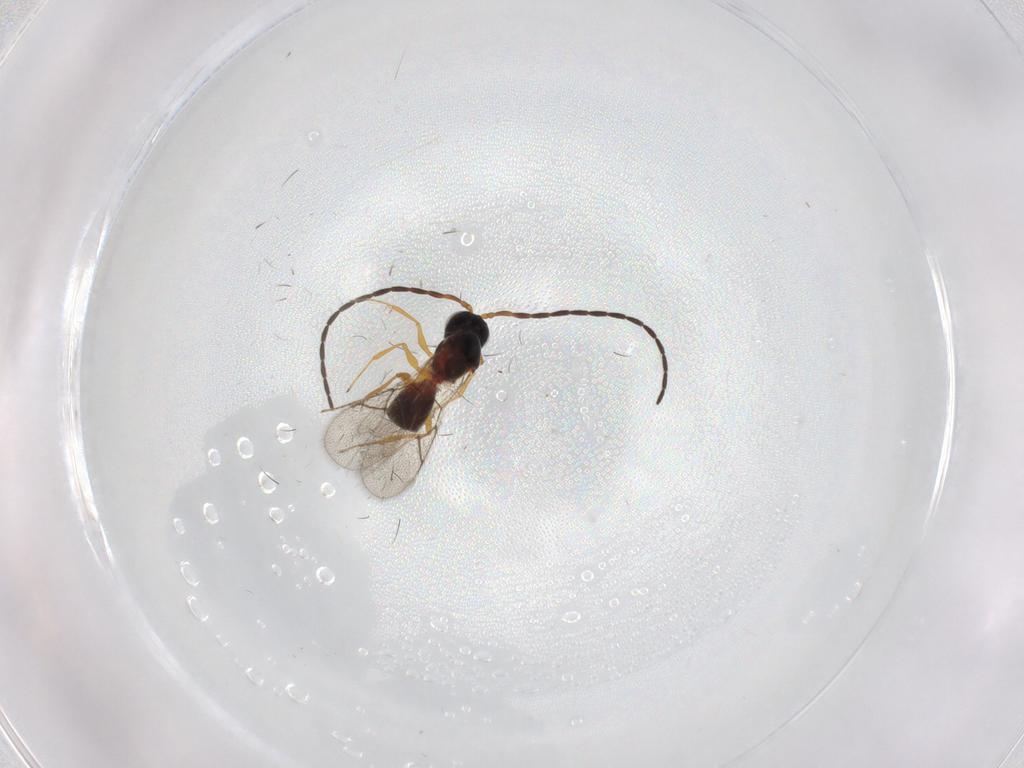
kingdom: Animalia
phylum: Arthropoda
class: Insecta
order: Hymenoptera
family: Figitidae
